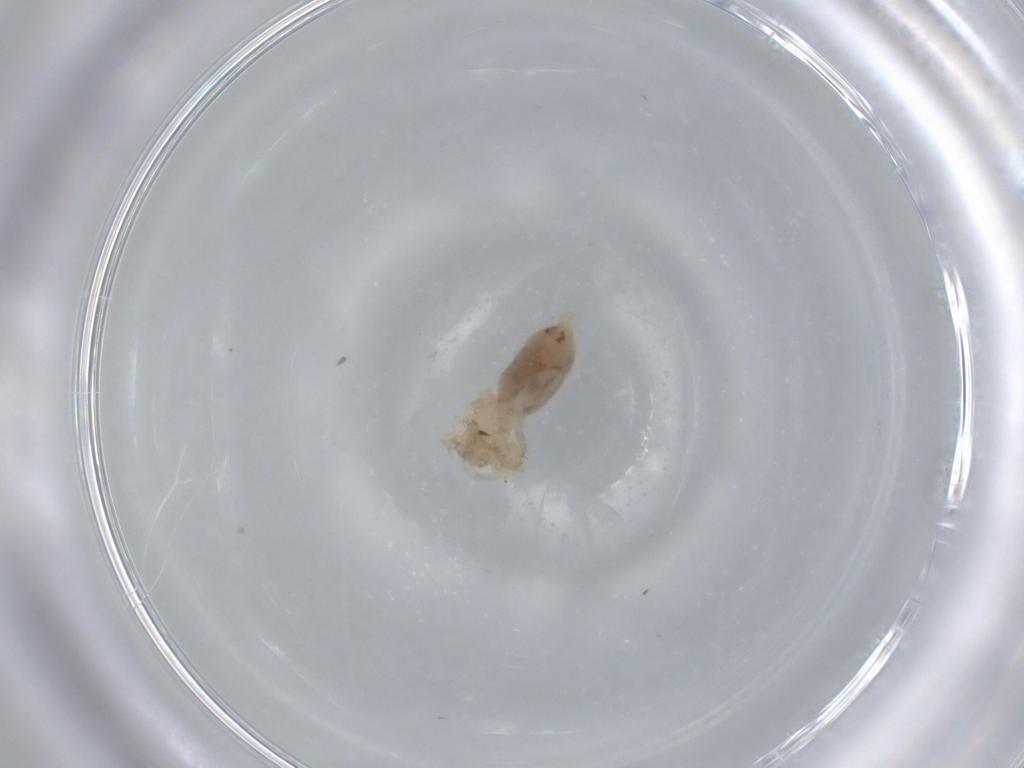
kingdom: Animalia
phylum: Arthropoda
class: Arachnida
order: Araneae
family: Oonopidae
